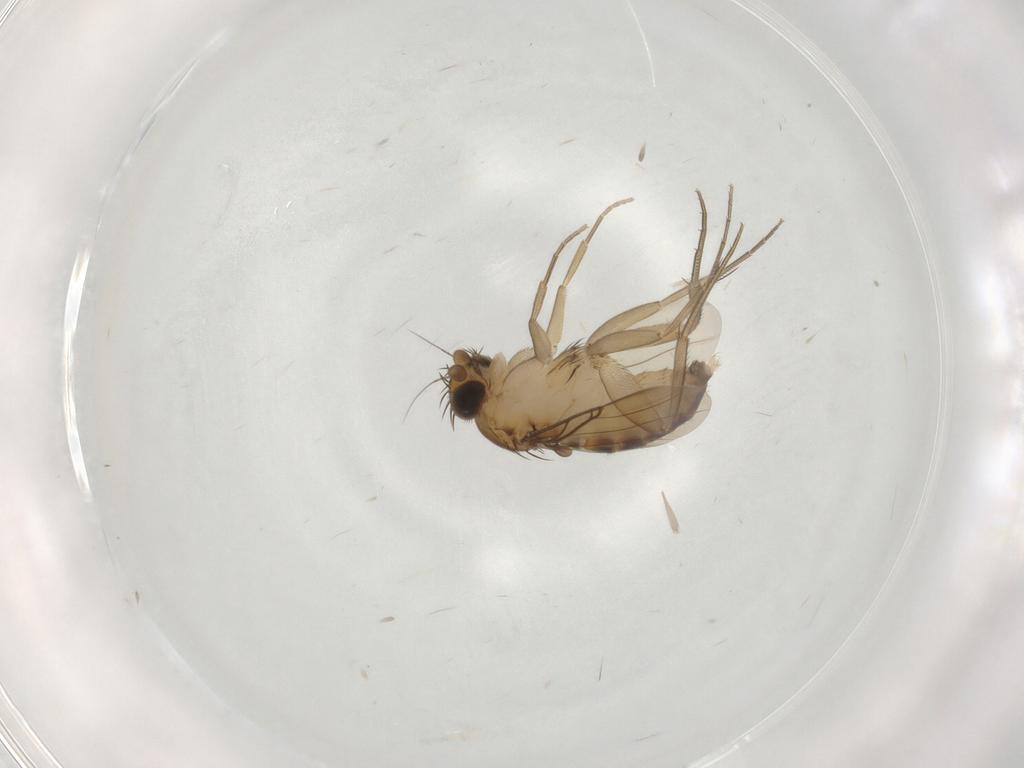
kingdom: Animalia
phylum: Arthropoda
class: Insecta
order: Diptera
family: Phoridae
